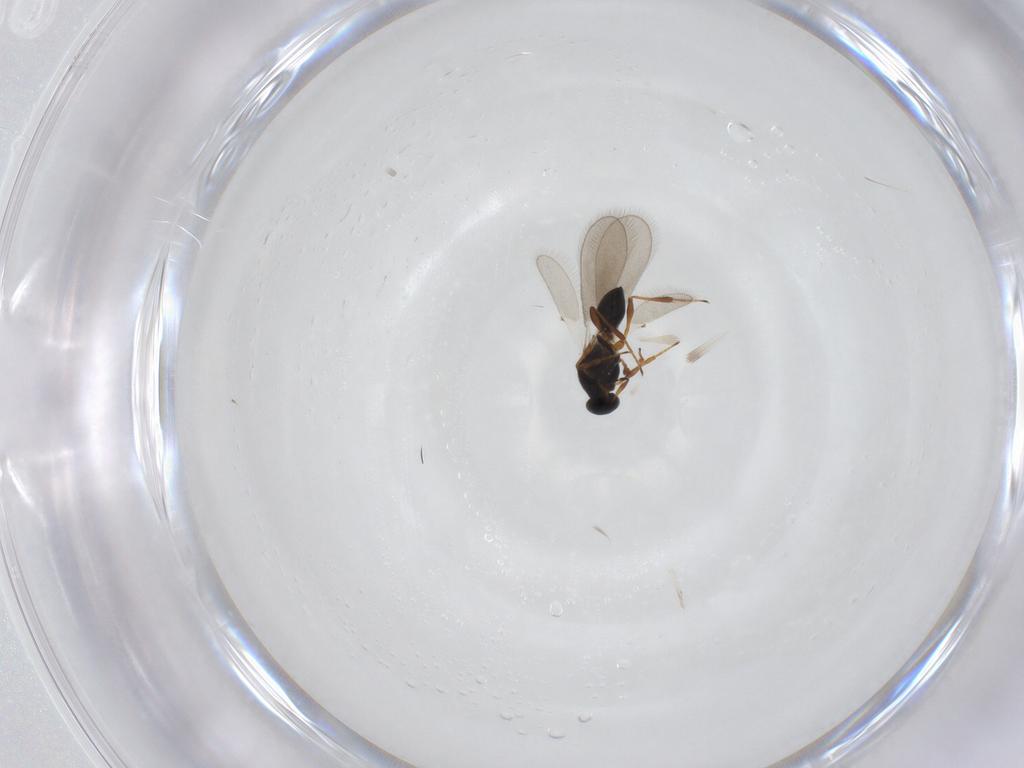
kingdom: Animalia
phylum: Arthropoda
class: Insecta
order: Hymenoptera
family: Platygastridae
